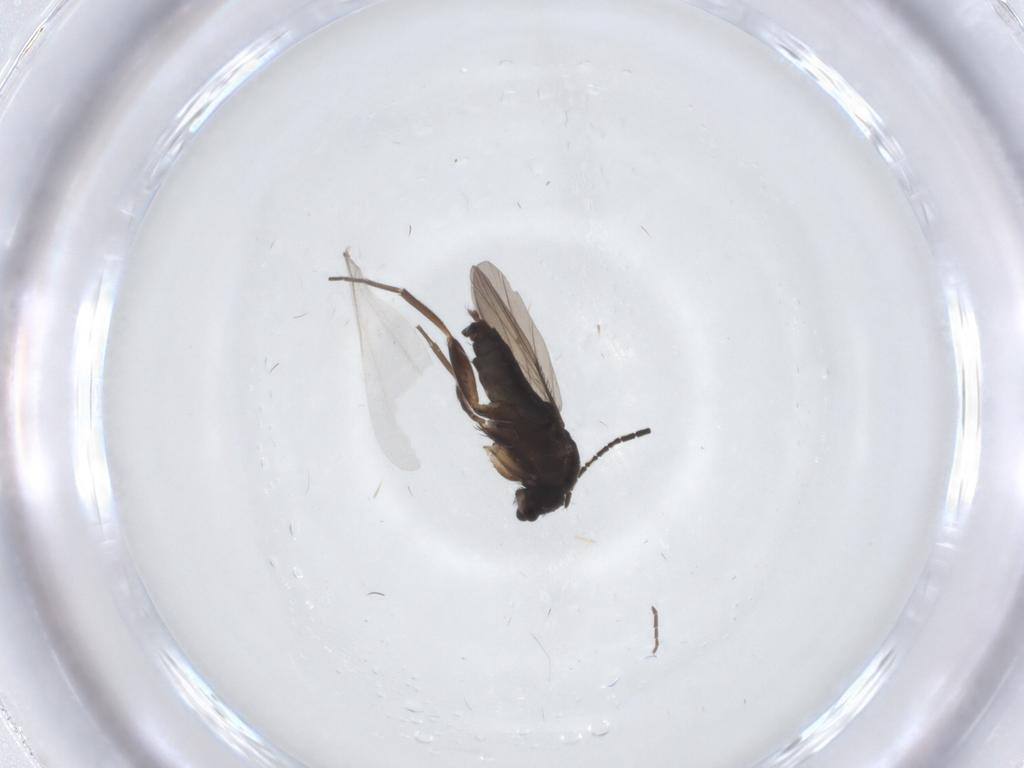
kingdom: Animalia
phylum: Arthropoda
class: Insecta
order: Diptera
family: Phoridae
